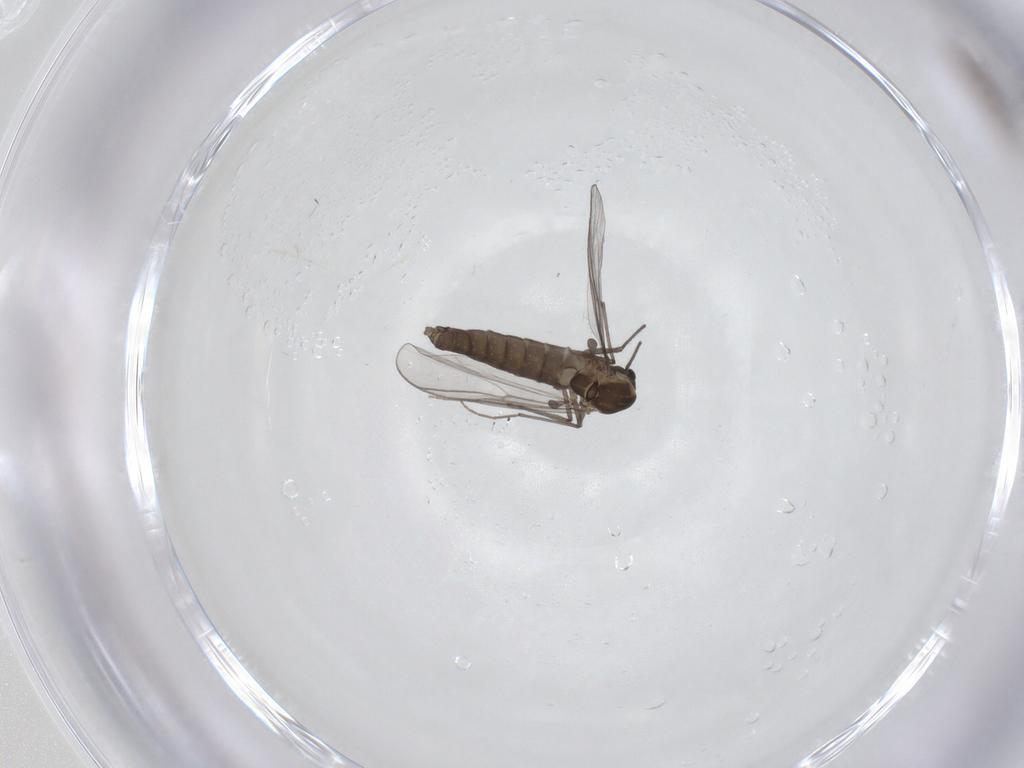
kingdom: Animalia
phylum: Arthropoda
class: Insecta
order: Diptera
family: Chironomidae
